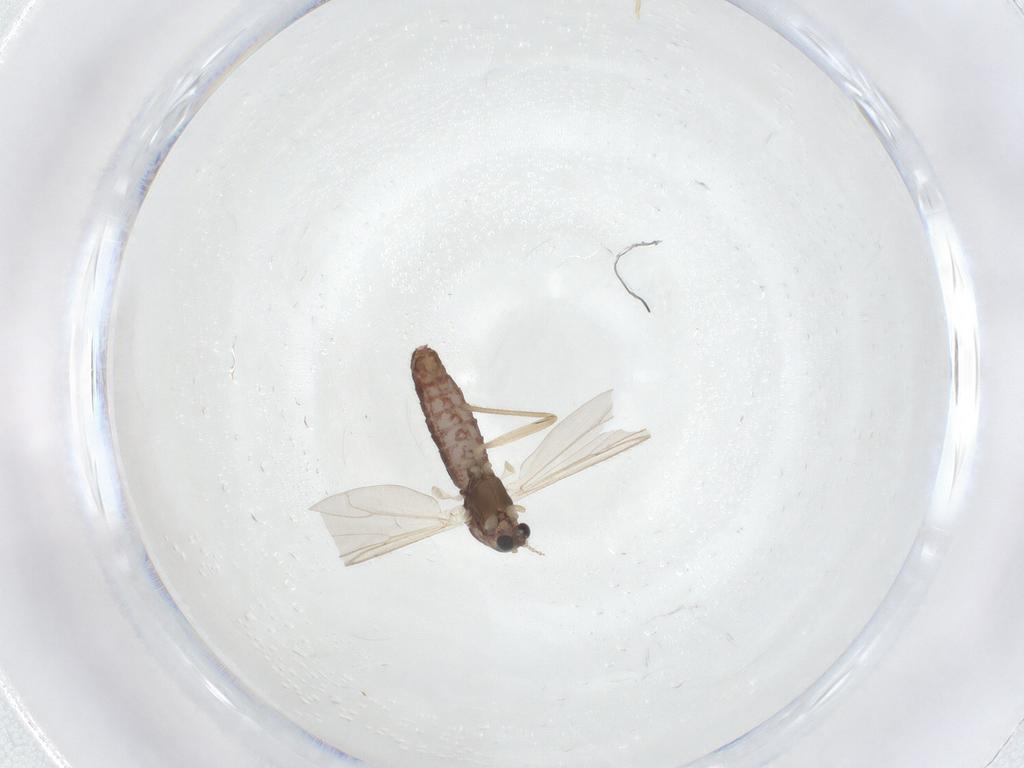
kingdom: Animalia
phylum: Arthropoda
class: Insecta
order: Diptera
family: Chironomidae
